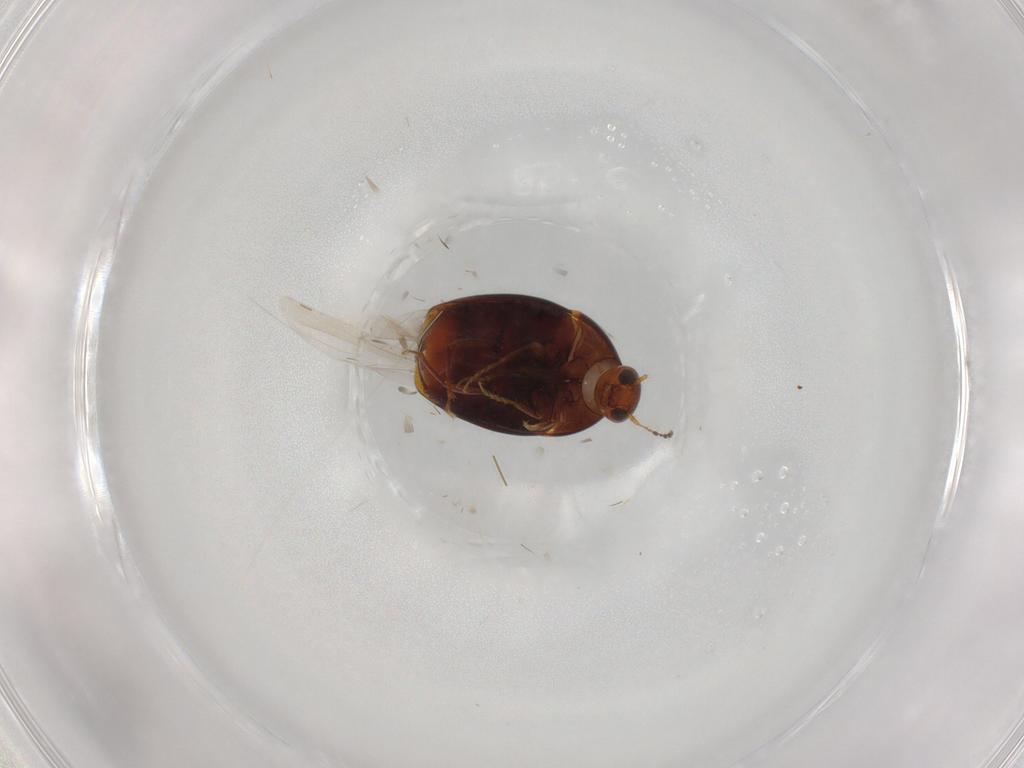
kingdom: Animalia
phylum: Arthropoda
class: Insecta
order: Coleoptera
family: Staphylinidae
